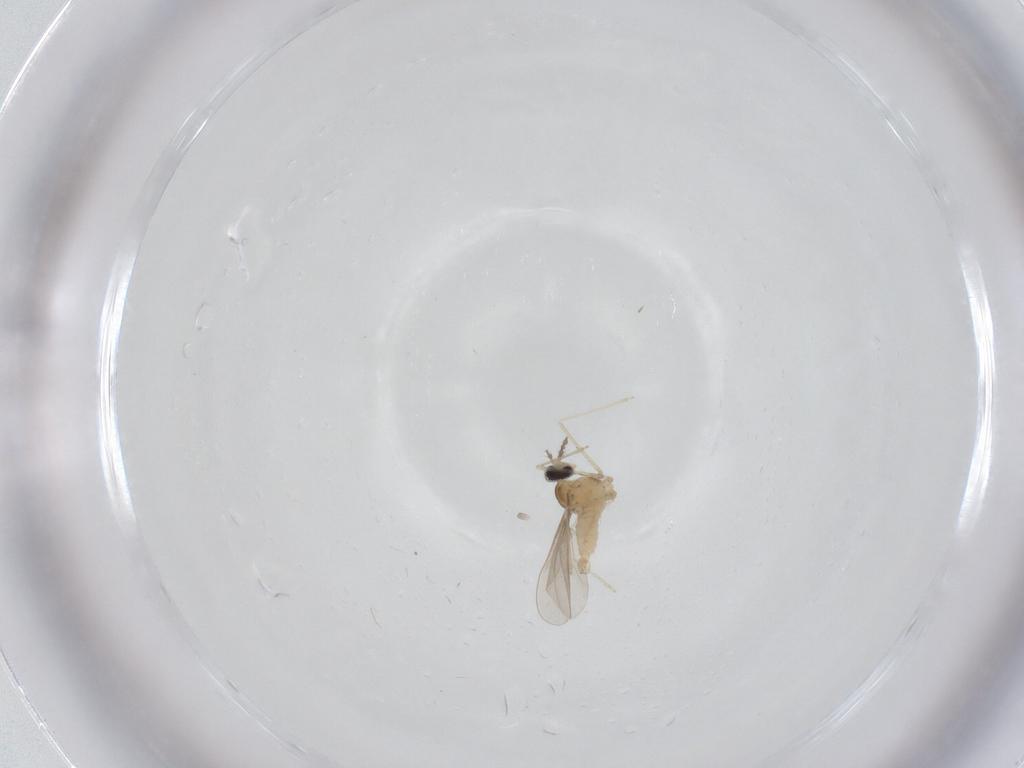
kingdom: Animalia
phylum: Arthropoda
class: Insecta
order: Diptera
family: Cecidomyiidae
